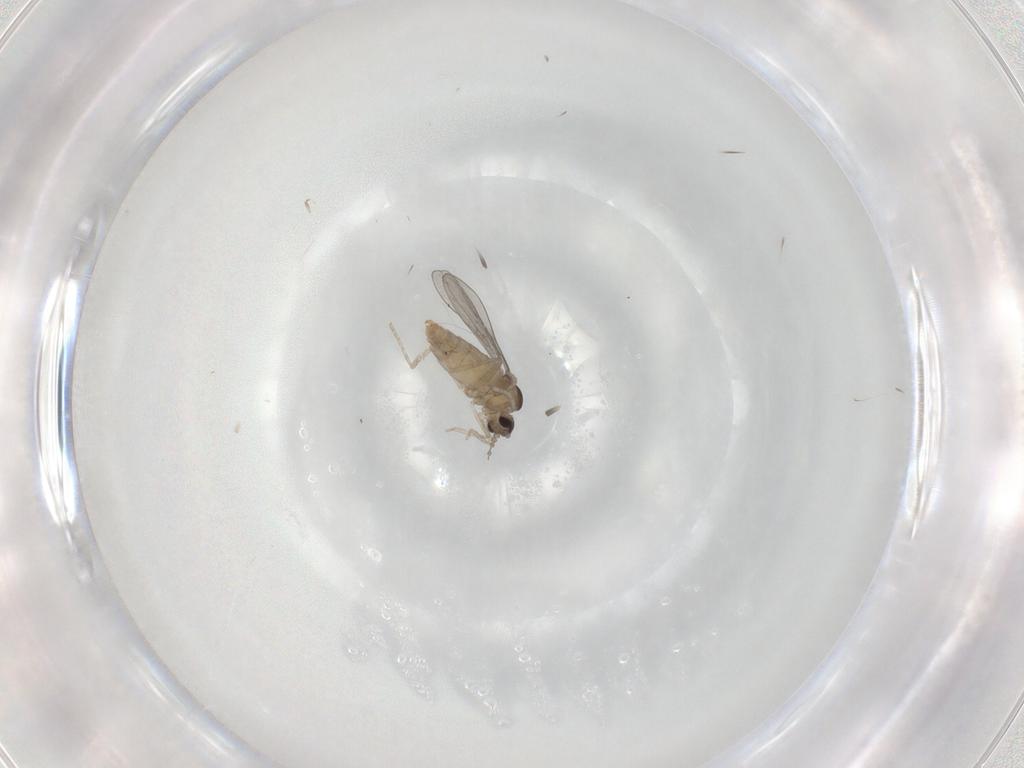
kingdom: Animalia
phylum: Arthropoda
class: Insecta
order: Diptera
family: Cecidomyiidae
